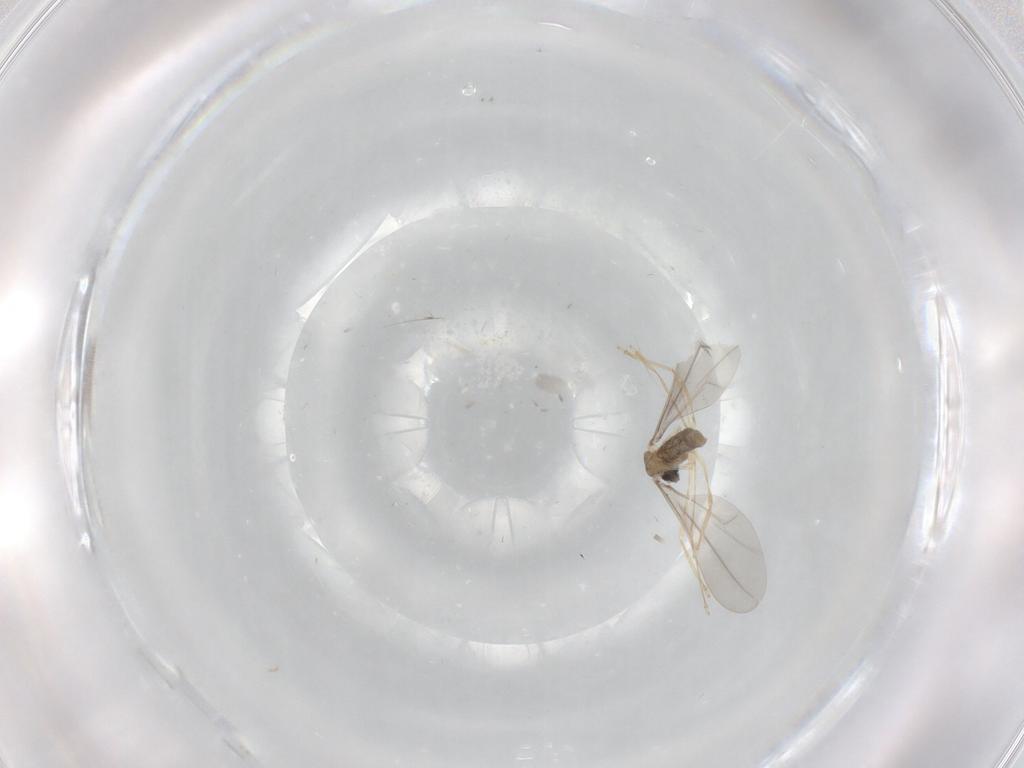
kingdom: Animalia
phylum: Arthropoda
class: Insecta
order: Diptera
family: Cecidomyiidae
